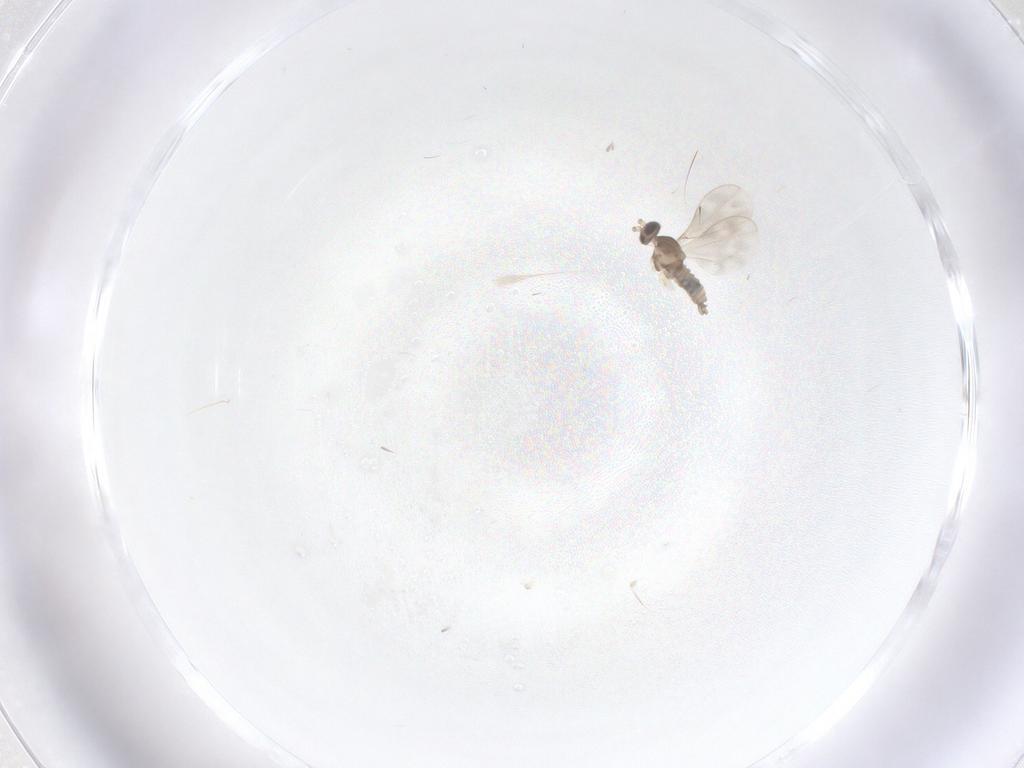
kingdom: Animalia
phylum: Arthropoda
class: Insecta
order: Diptera
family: Cecidomyiidae
